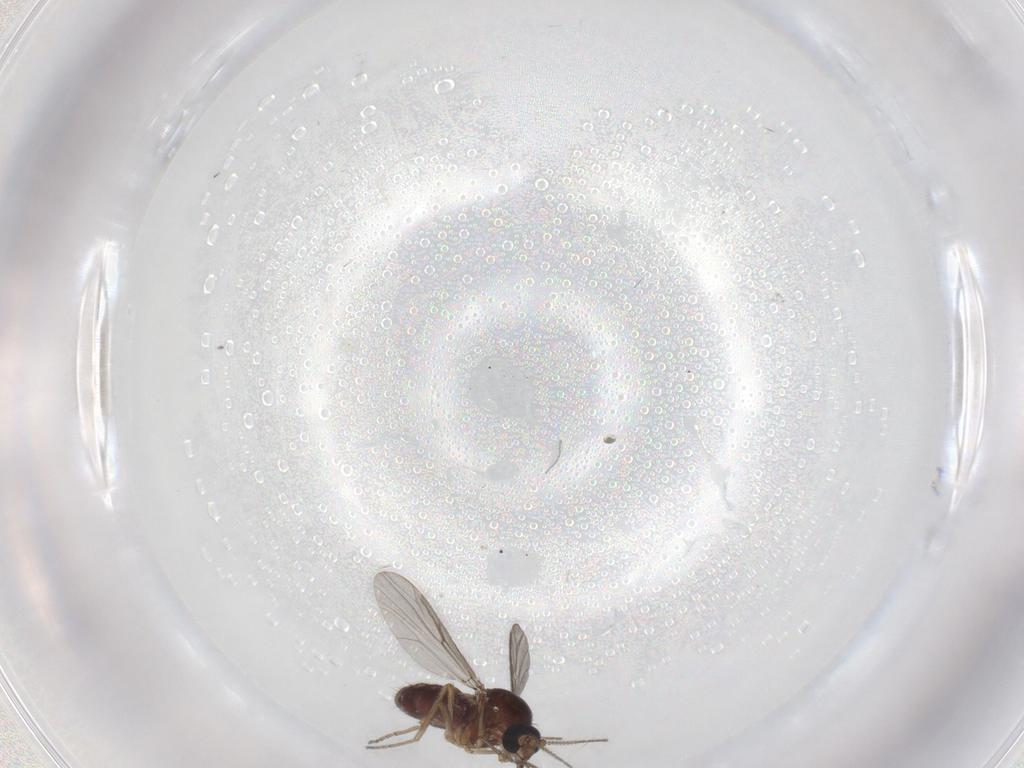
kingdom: Animalia
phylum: Arthropoda
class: Insecta
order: Diptera
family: Ceratopogonidae
